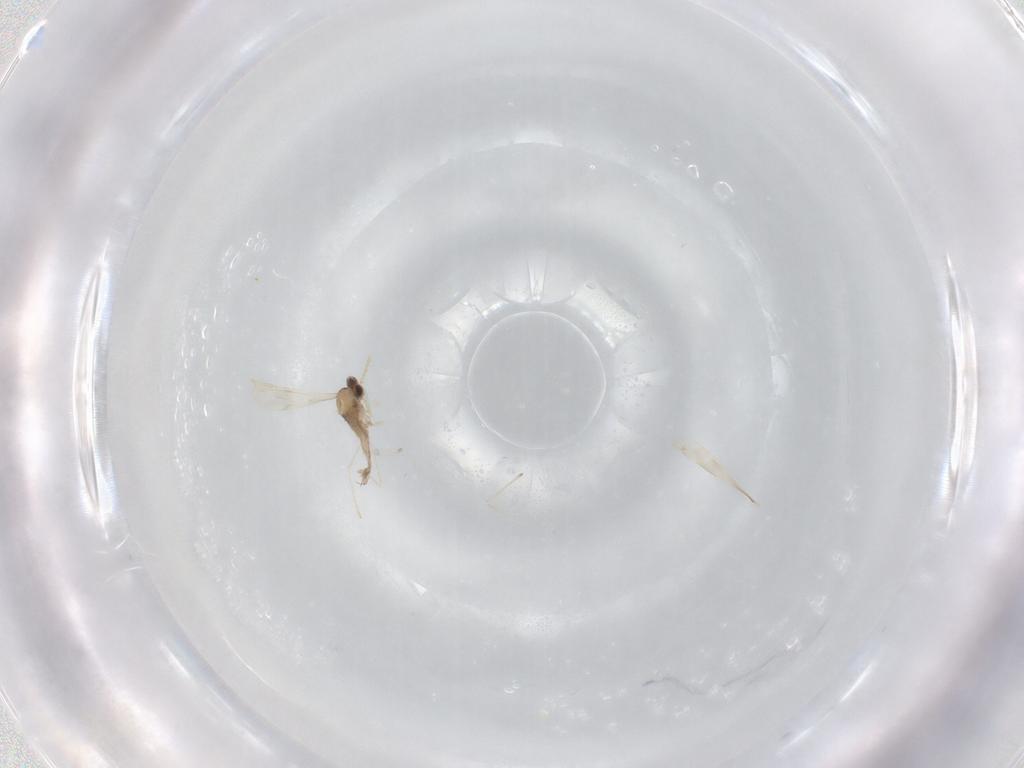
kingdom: Animalia
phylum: Arthropoda
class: Insecta
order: Diptera
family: Cecidomyiidae
